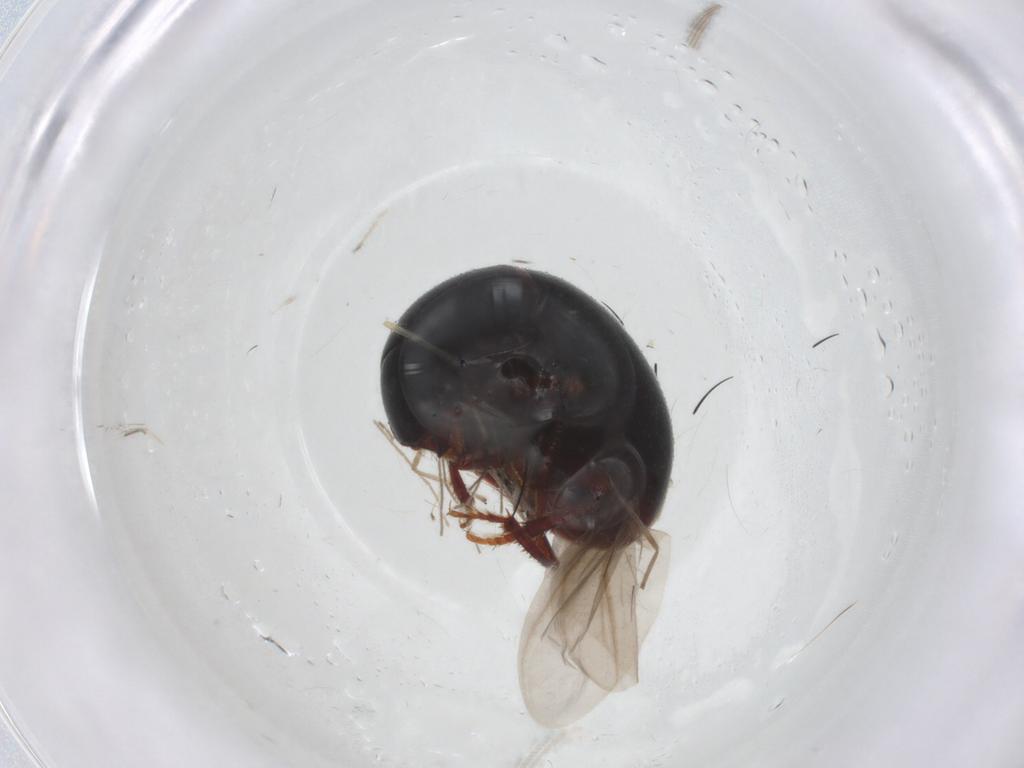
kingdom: Animalia
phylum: Arthropoda
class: Insecta
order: Coleoptera
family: Leiodidae
